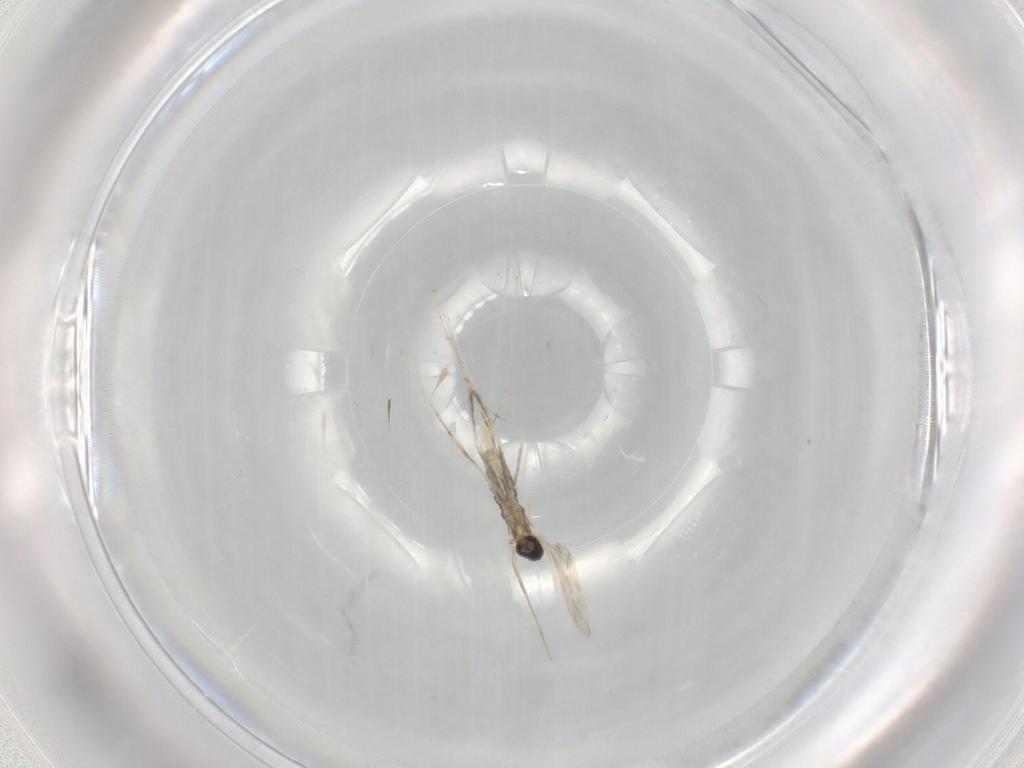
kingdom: Animalia
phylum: Arthropoda
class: Insecta
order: Diptera
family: Cecidomyiidae
